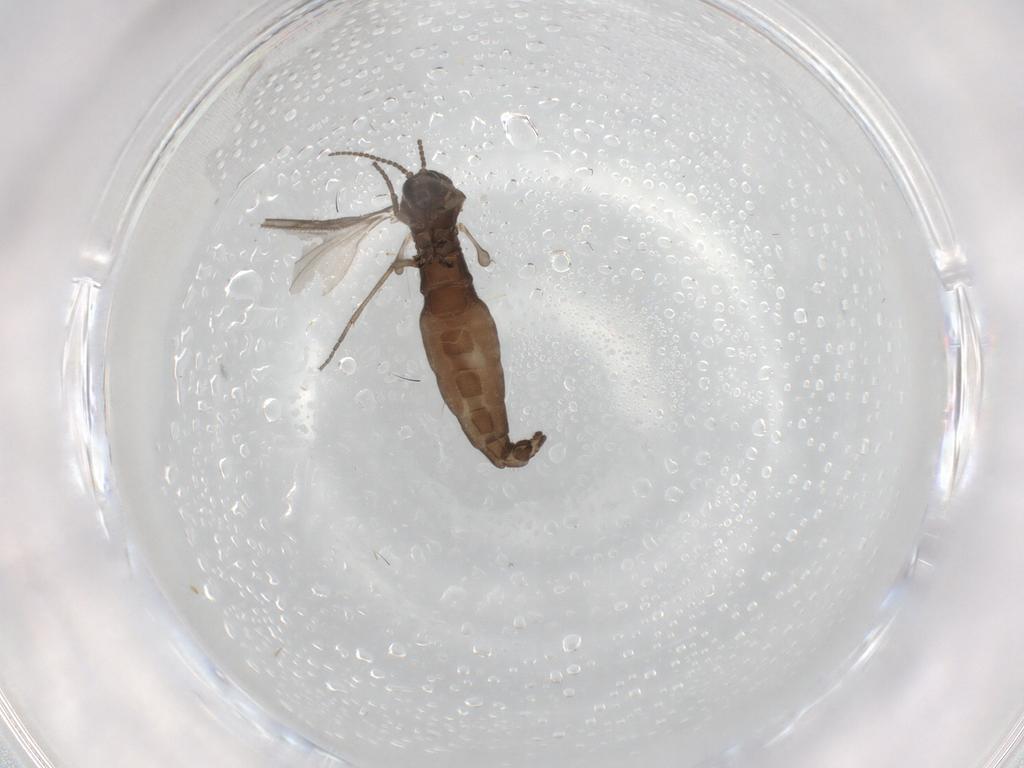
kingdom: Animalia
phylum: Arthropoda
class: Insecta
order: Diptera
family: Sciaridae
